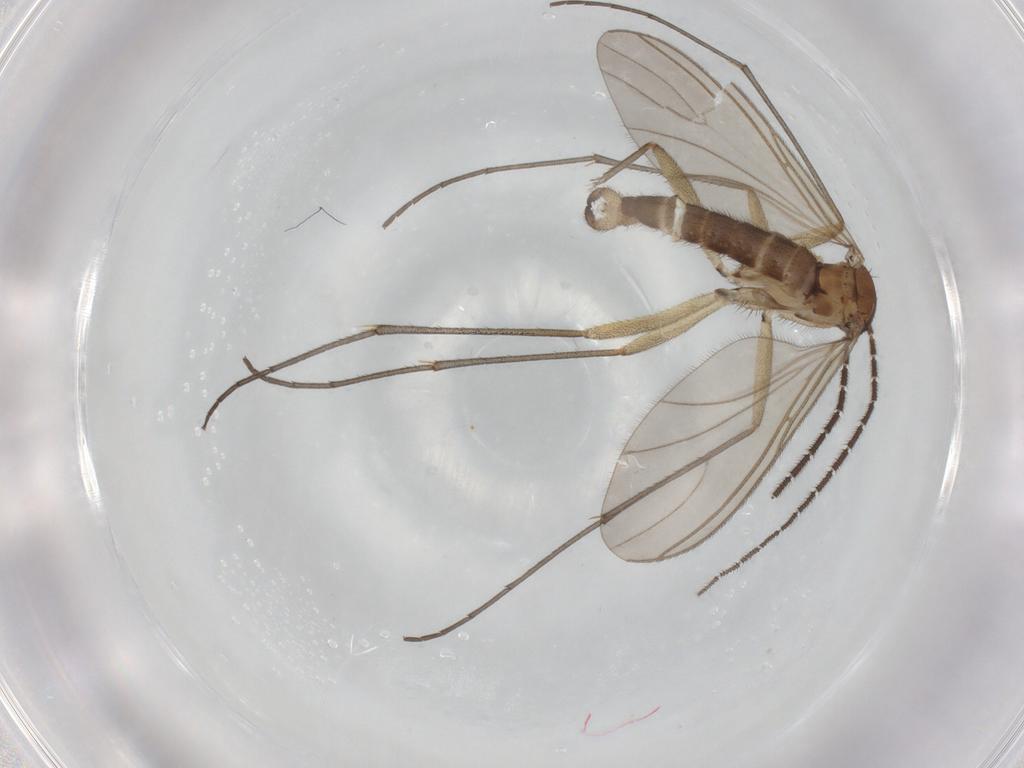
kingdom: Animalia
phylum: Arthropoda
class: Insecta
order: Diptera
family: Sciaridae
